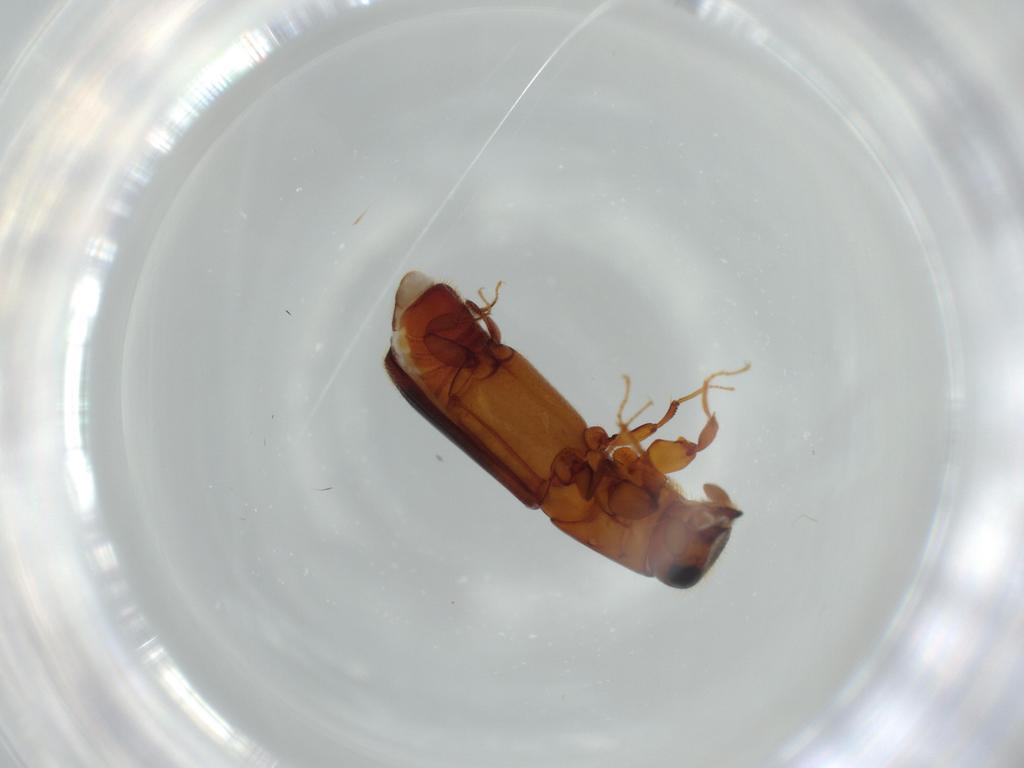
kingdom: Animalia
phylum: Arthropoda
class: Insecta
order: Coleoptera
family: Curculionidae
